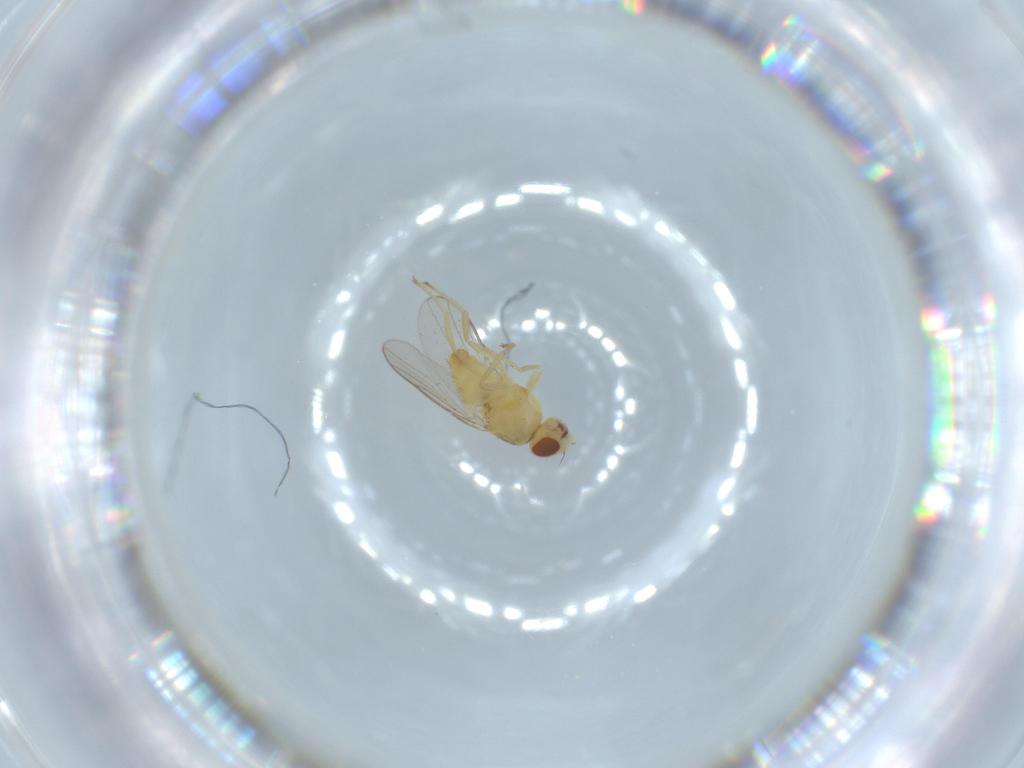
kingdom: Animalia
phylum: Arthropoda
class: Insecta
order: Diptera
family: Chloropidae
